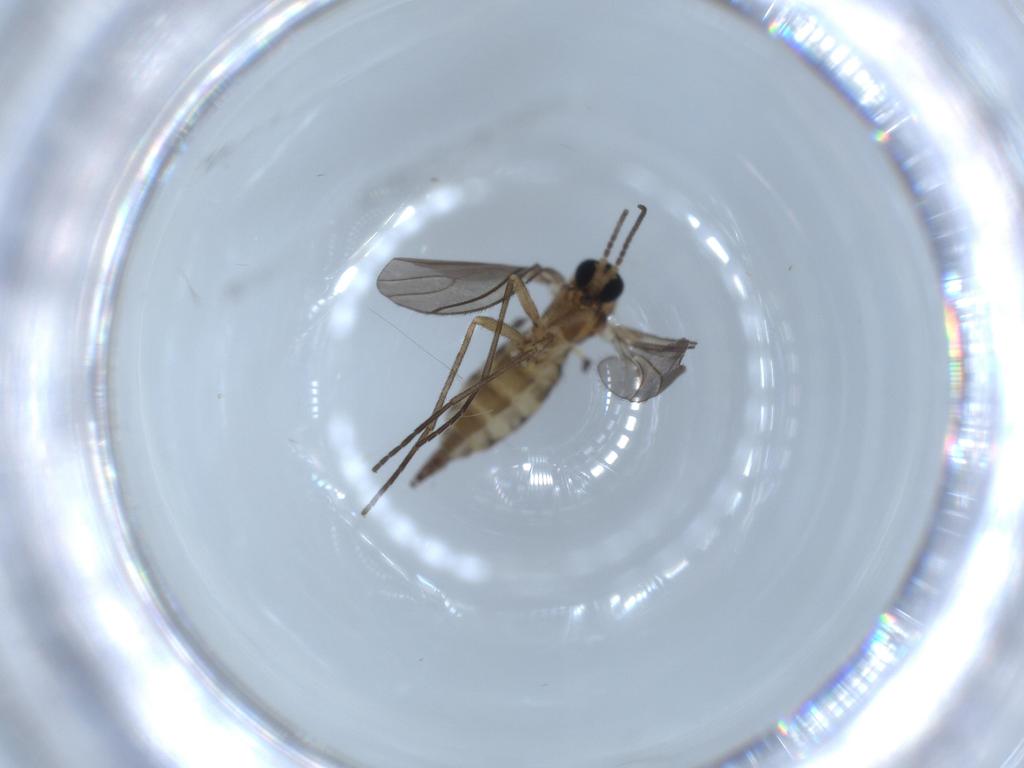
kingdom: Animalia
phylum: Arthropoda
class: Insecta
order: Diptera
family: Sciaridae
